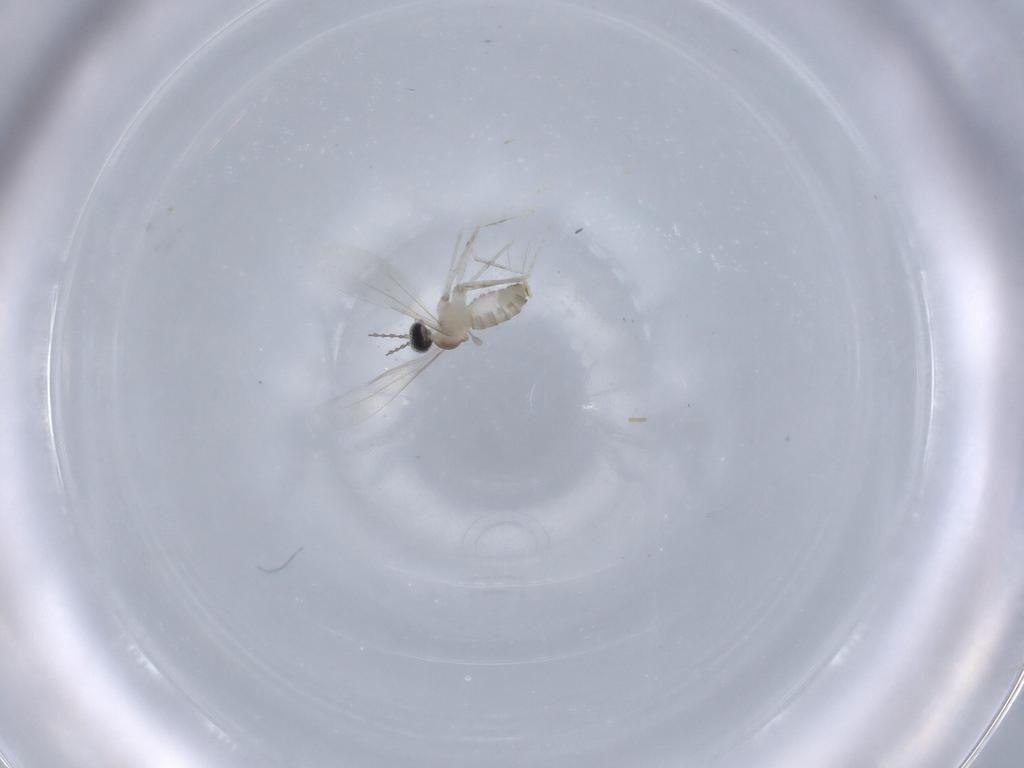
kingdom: Animalia
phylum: Arthropoda
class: Insecta
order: Diptera
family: Cecidomyiidae
